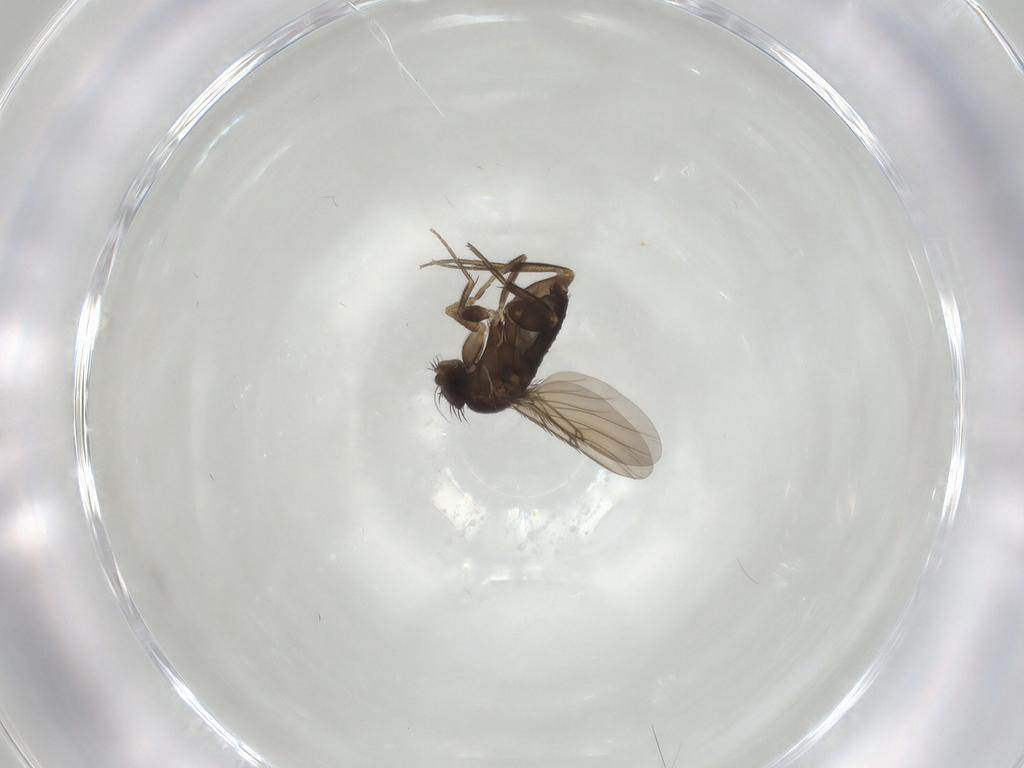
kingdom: Animalia
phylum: Arthropoda
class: Insecta
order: Diptera
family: Phoridae
